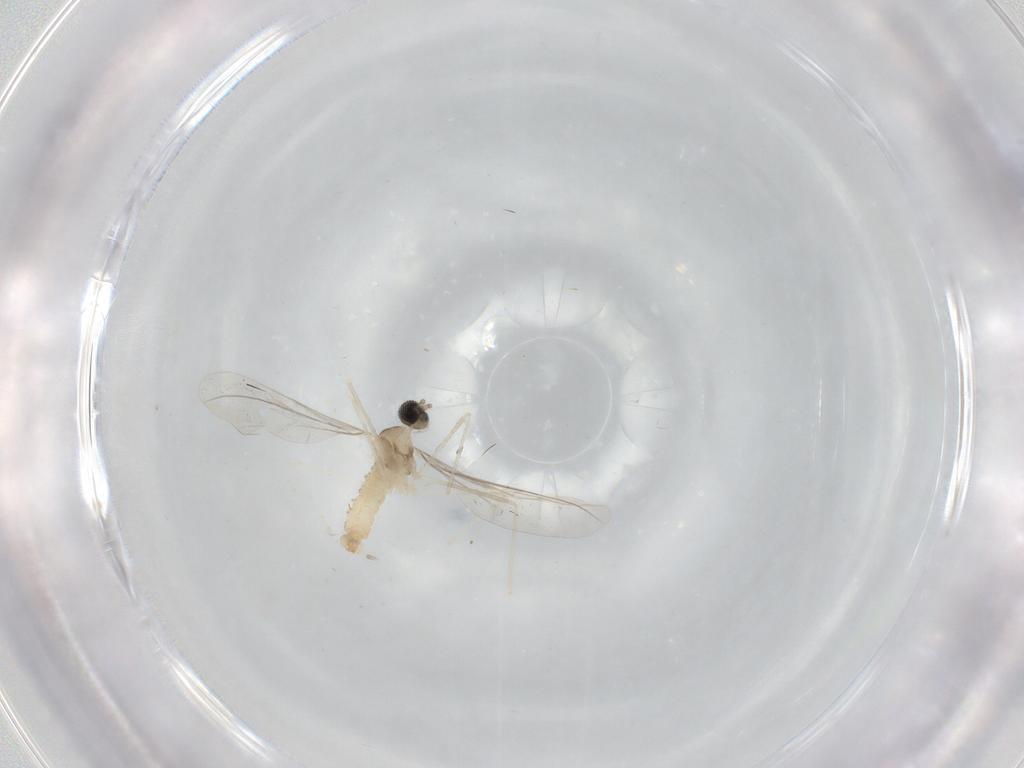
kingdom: Animalia
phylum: Arthropoda
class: Insecta
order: Diptera
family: Cecidomyiidae
